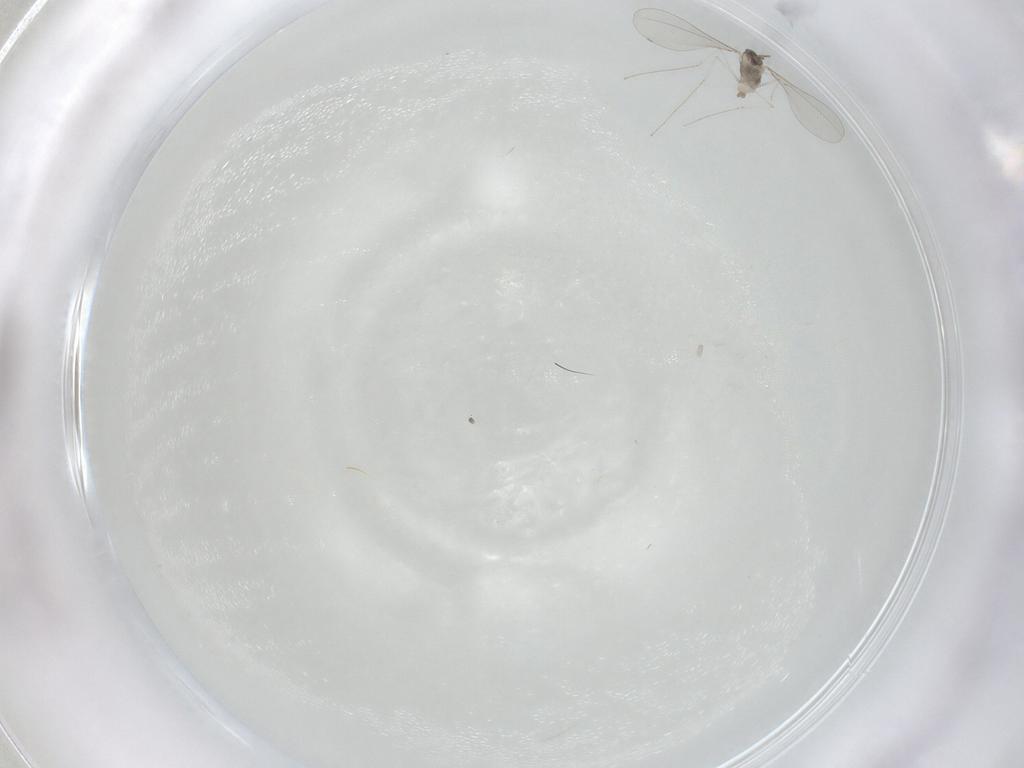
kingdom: Animalia
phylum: Arthropoda
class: Insecta
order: Diptera
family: Cecidomyiidae
